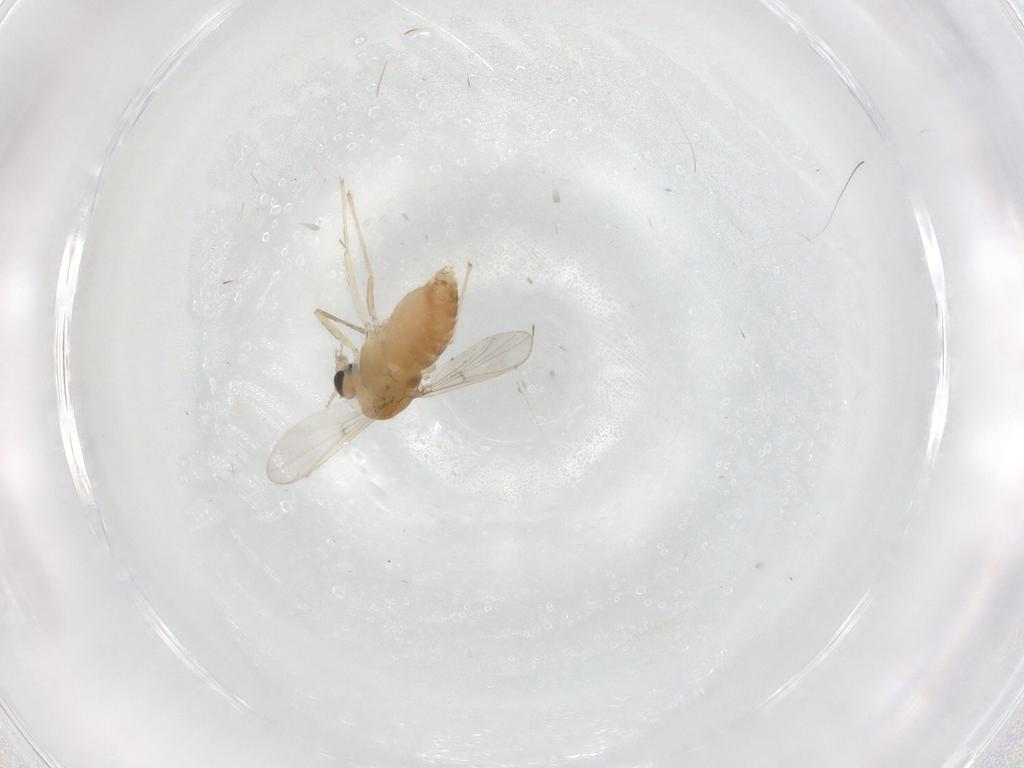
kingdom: Animalia
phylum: Arthropoda
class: Insecta
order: Diptera
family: Chironomidae
